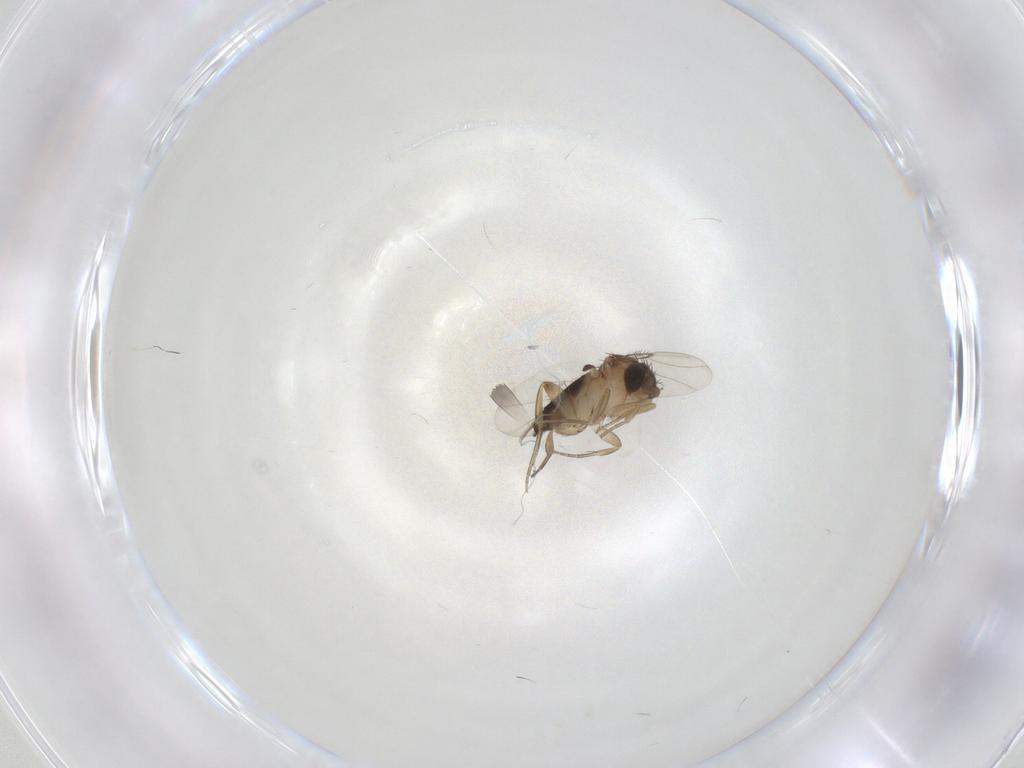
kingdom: Animalia
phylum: Arthropoda
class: Insecta
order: Diptera
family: Phoridae
